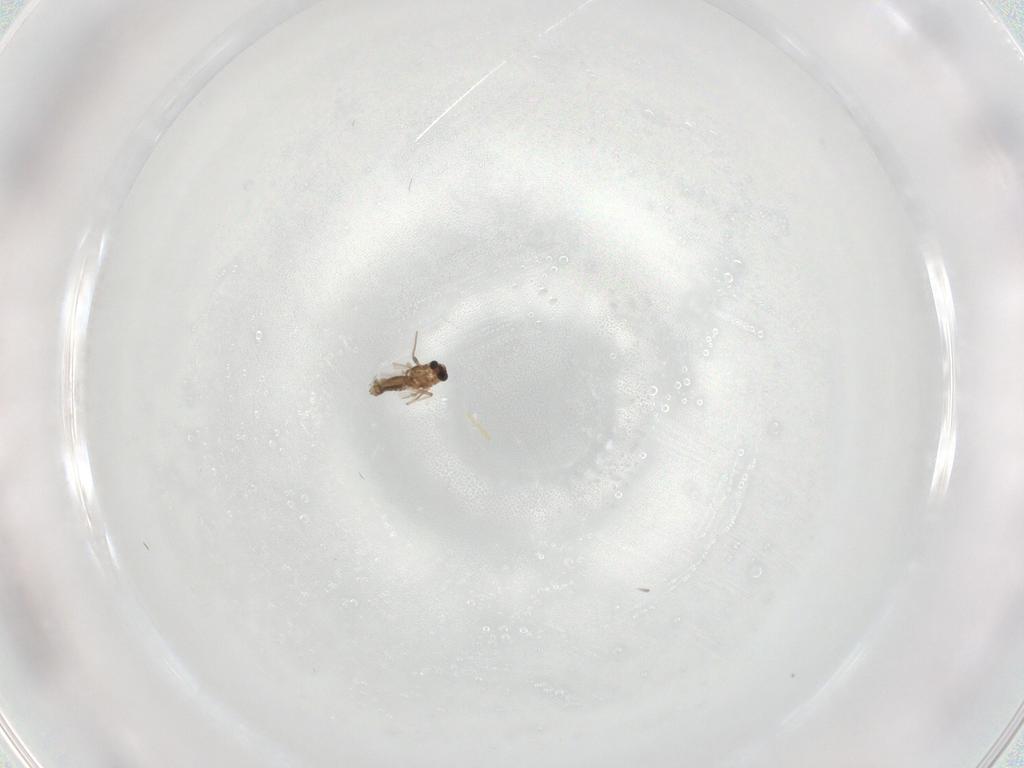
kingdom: Animalia
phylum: Arthropoda
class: Insecta
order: Diptera
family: Chironomidae
